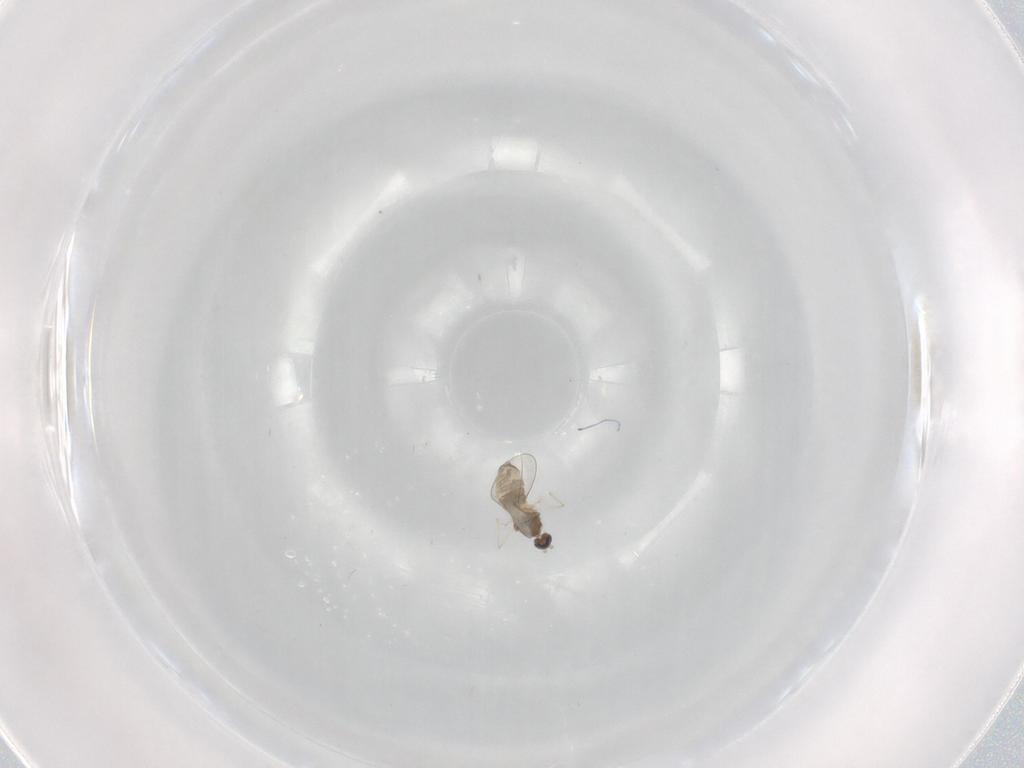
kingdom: Animalia
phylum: Arthropoda
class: Insecta
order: Diptera
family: Cecidomyiidae
